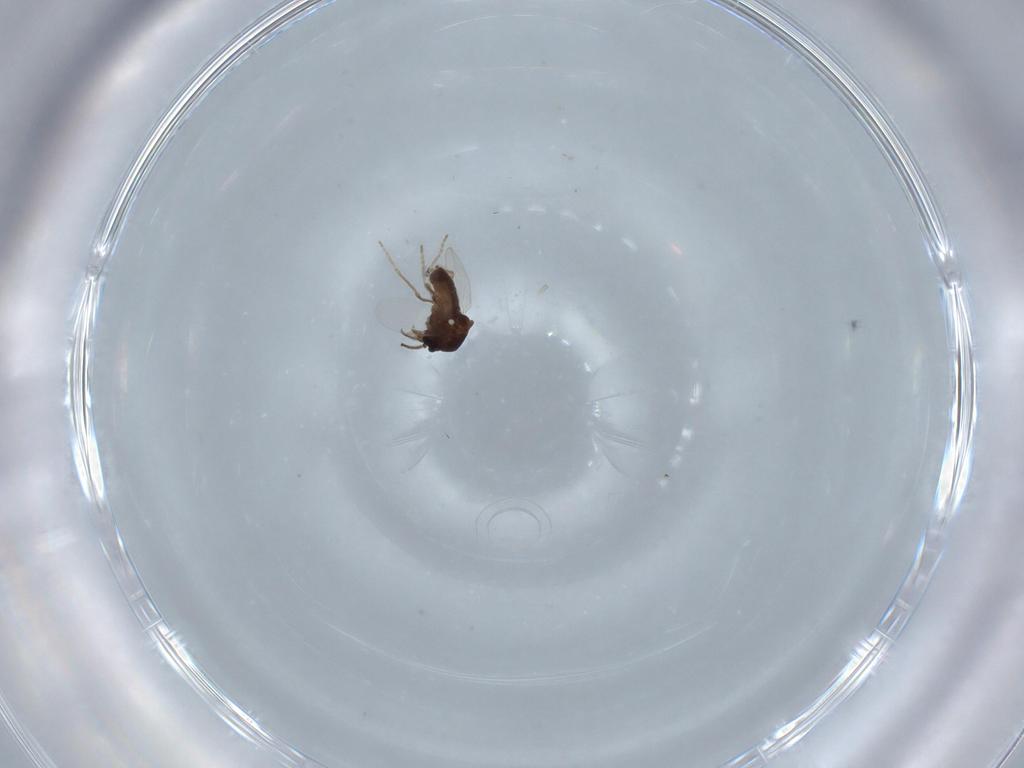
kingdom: Animalia
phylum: Arthropoda
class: Insecta
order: Diptera
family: Ceratopogonidae
